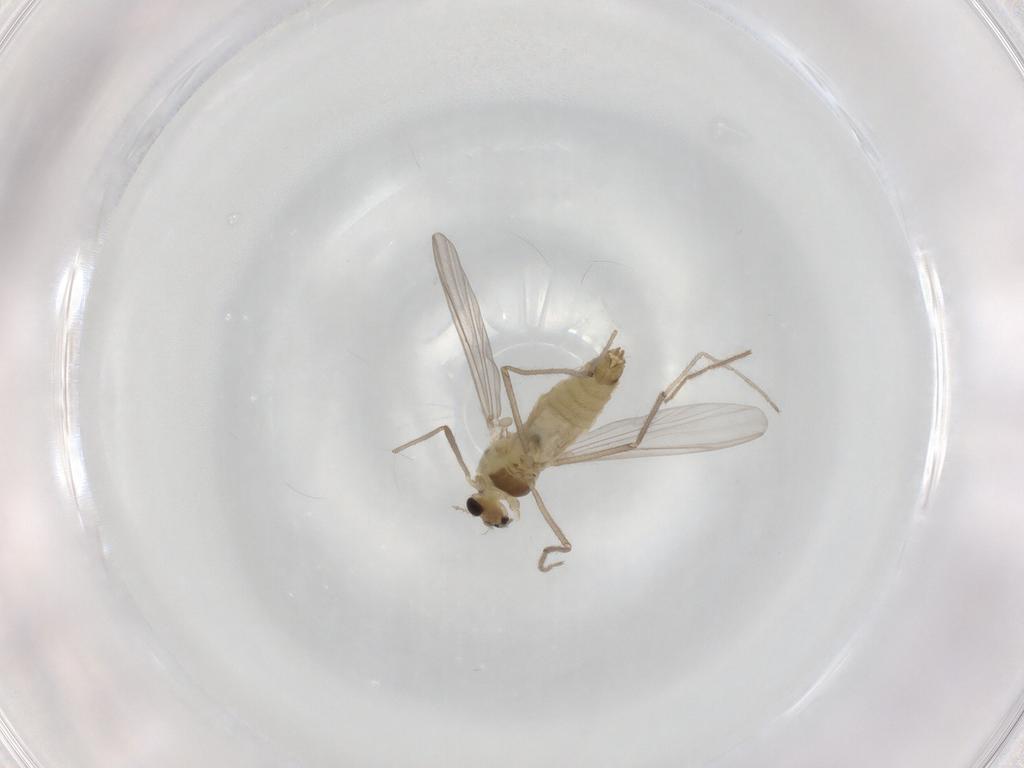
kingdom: Animalia
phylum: Arthropoda
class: Insecta
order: Diptera
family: Chironomidae
